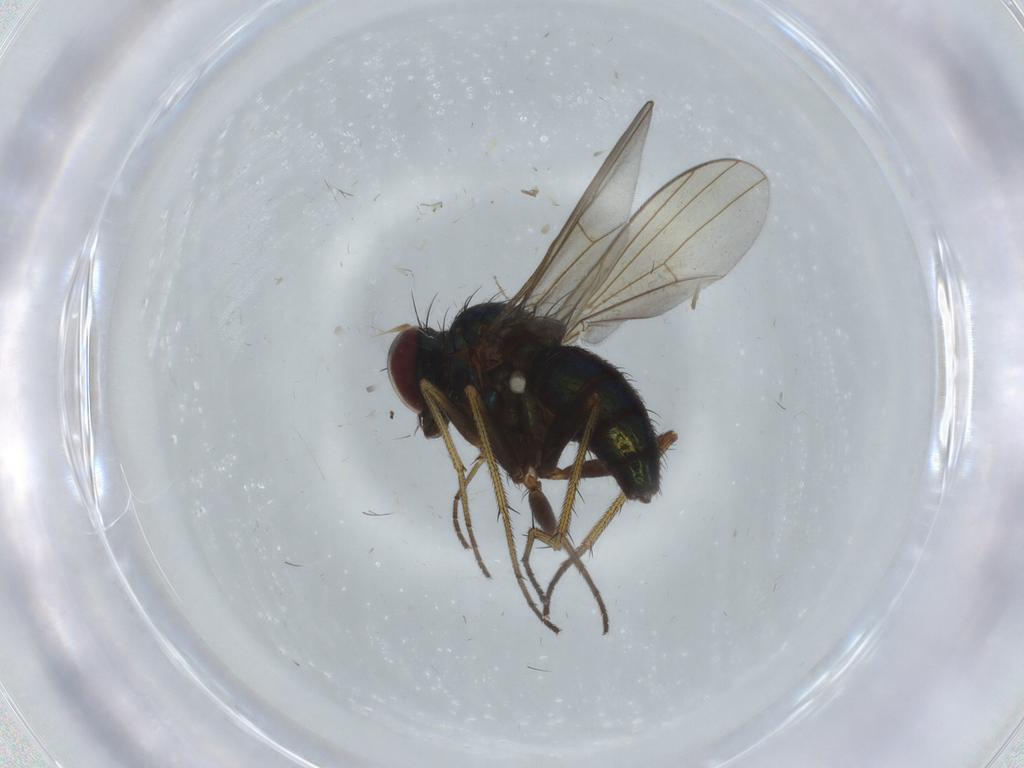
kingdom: Animalia
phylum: Arthropoda
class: Insecta
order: Diptera
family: Dolichopodidae
